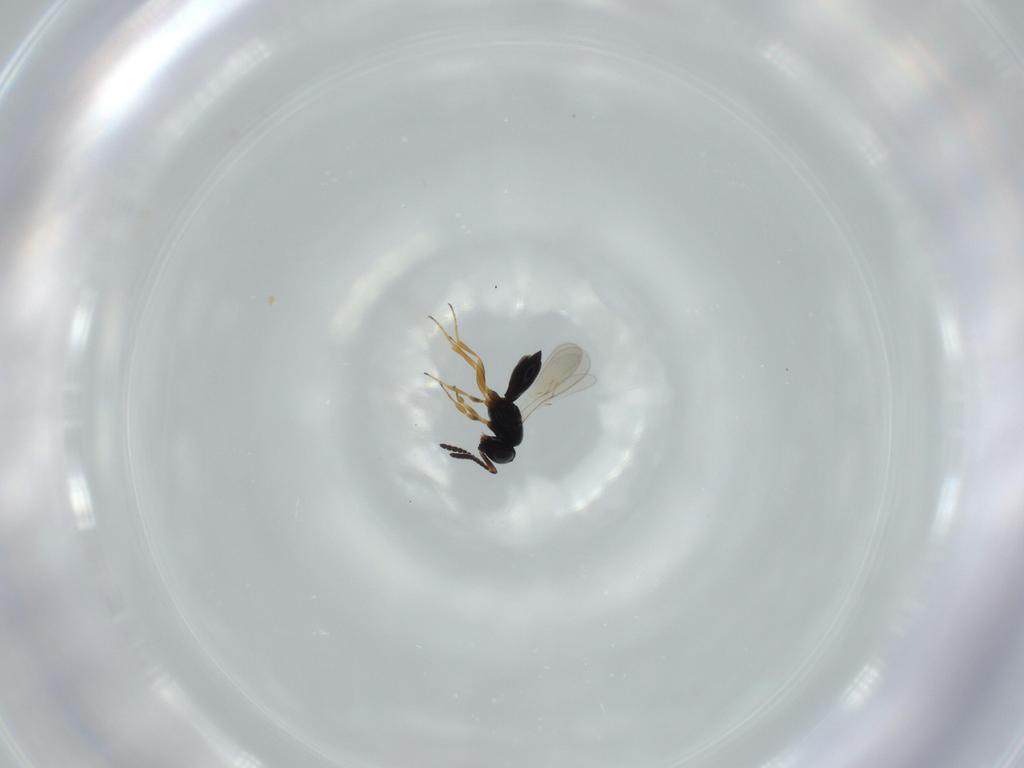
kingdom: Animalia
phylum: Arthropoda
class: Insecta
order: Hymenoptera
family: Scelionidae
